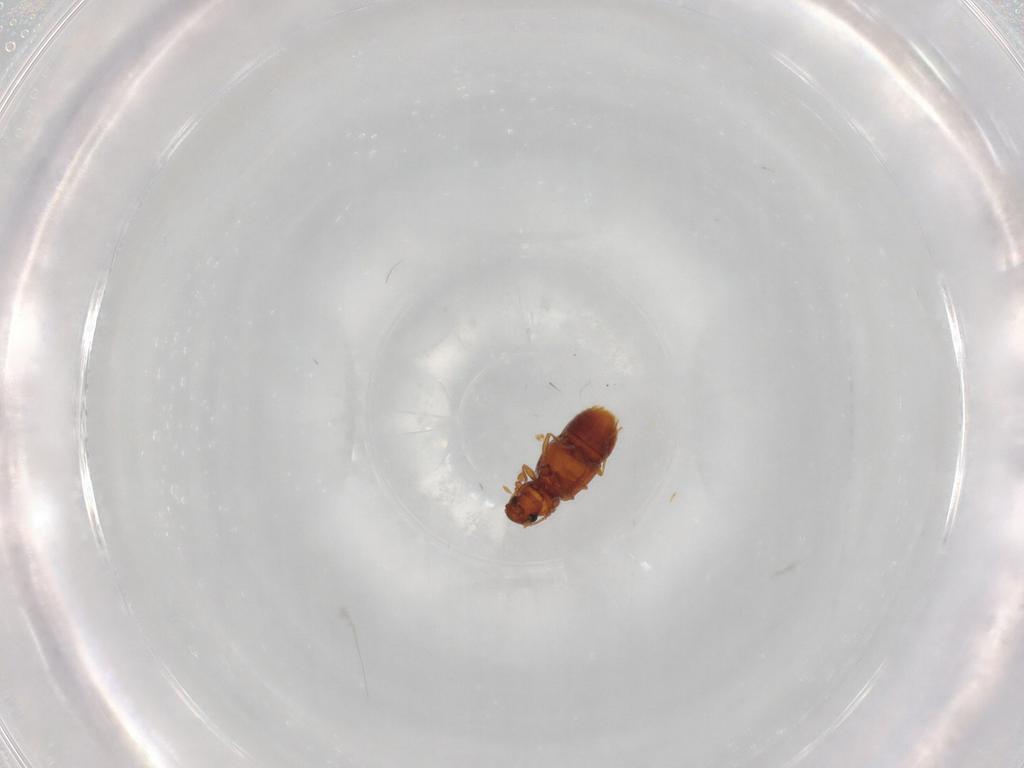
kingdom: Animalia
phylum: Arthropoda
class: Insecta
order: Coleoptera
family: Staphylinidae
